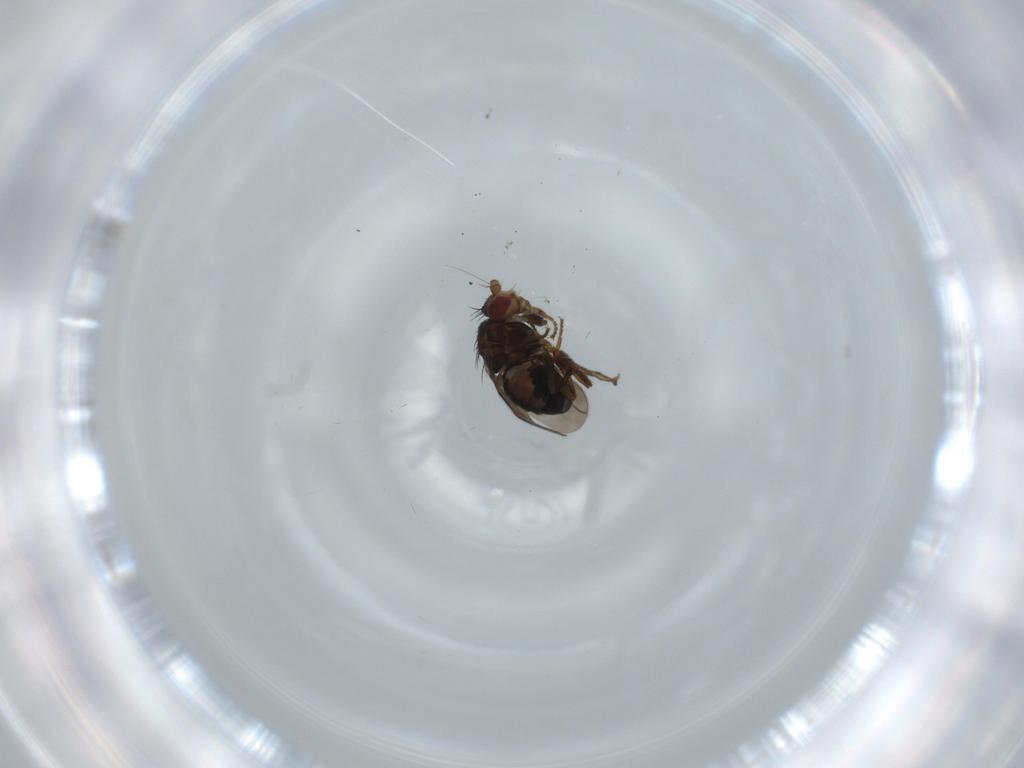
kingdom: Animalia
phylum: Arthropoda
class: Insecta
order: Diptera
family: Sphaeroceridae
